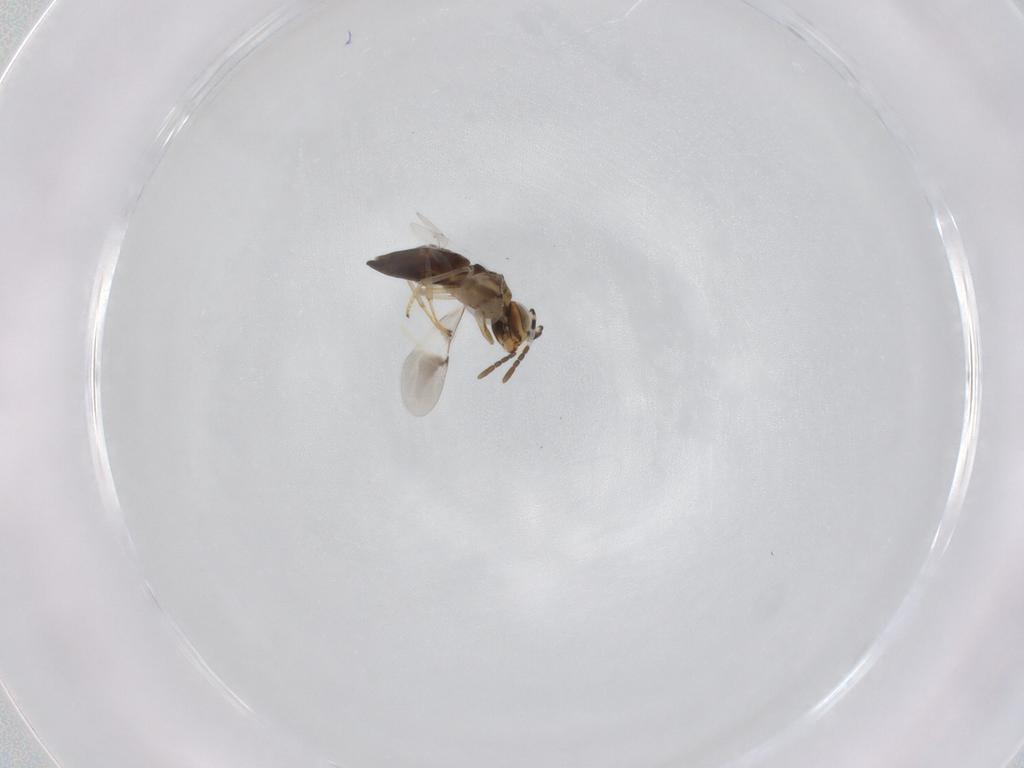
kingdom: Animalia
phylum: Arthropoda
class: Insecta
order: Hymenoptera
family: Encyrtidae
